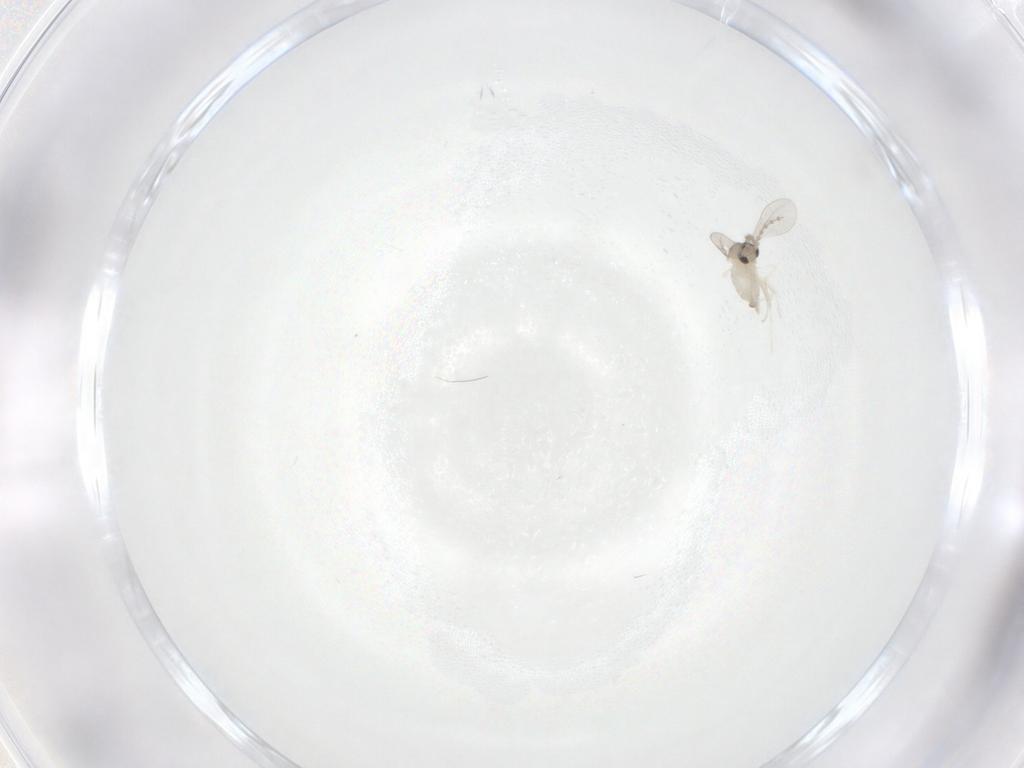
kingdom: Animalia
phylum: Arthropoda
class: Insecta
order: Diptera
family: Cecidomyiidae
